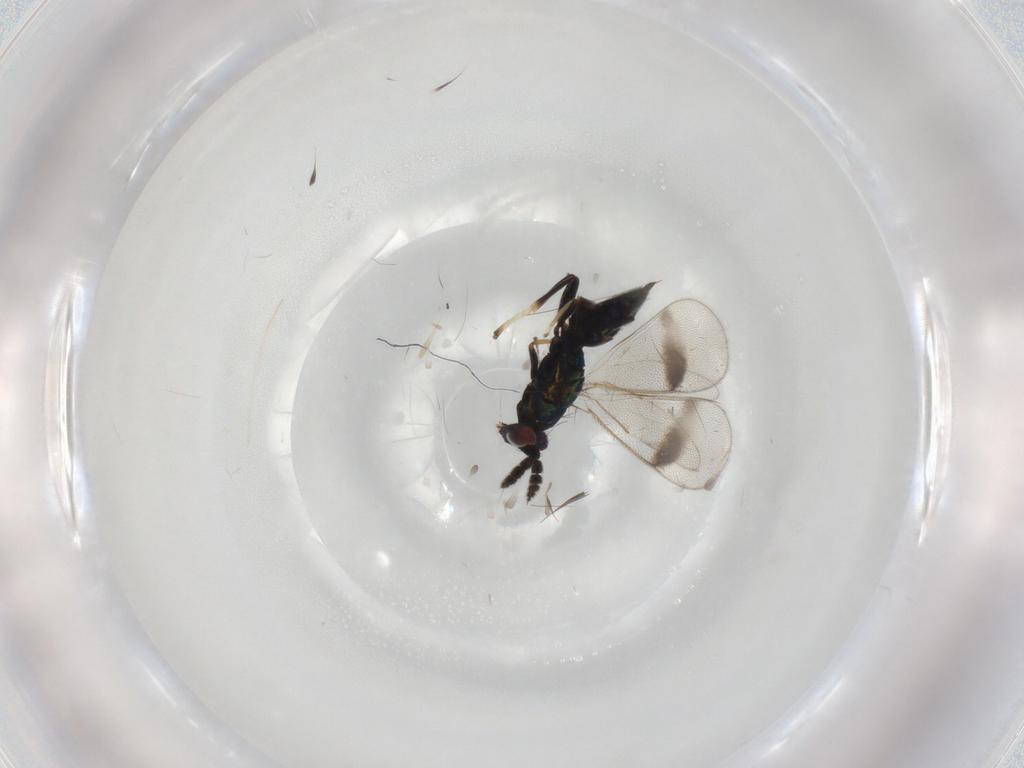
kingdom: Animalia
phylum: Arthropoda
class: Insecta
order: Hymenoptera
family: Eulophidae
